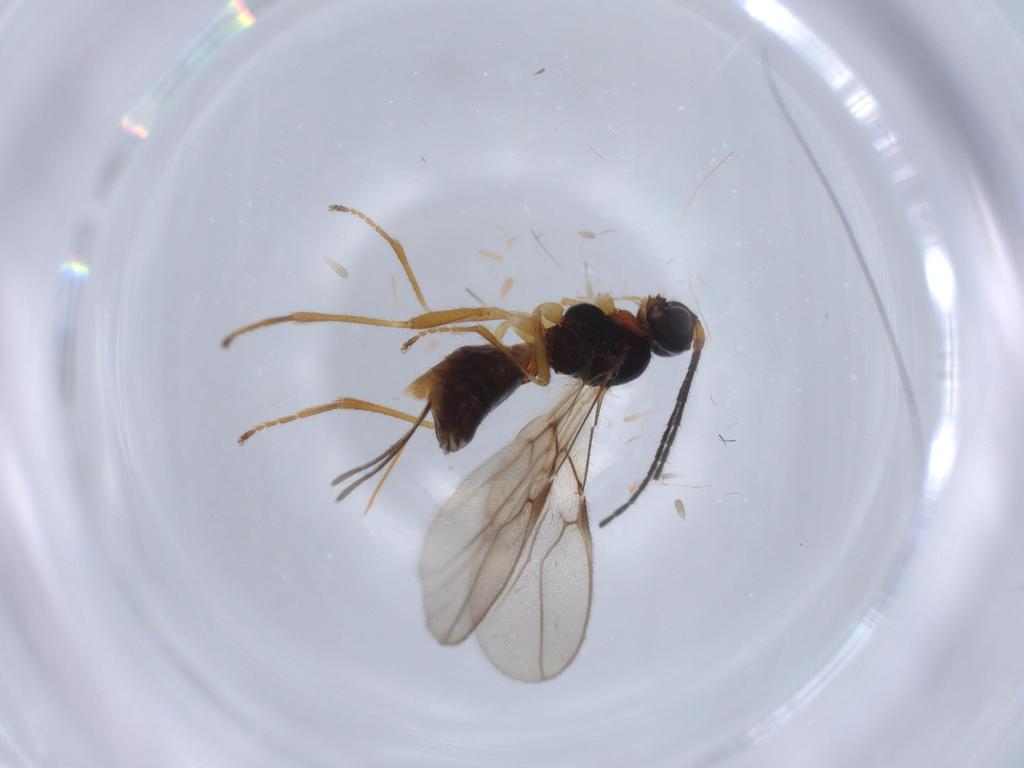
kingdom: Animalia
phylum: Arthropoda
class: Insecta
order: Hymenoptera
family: Braconidae
